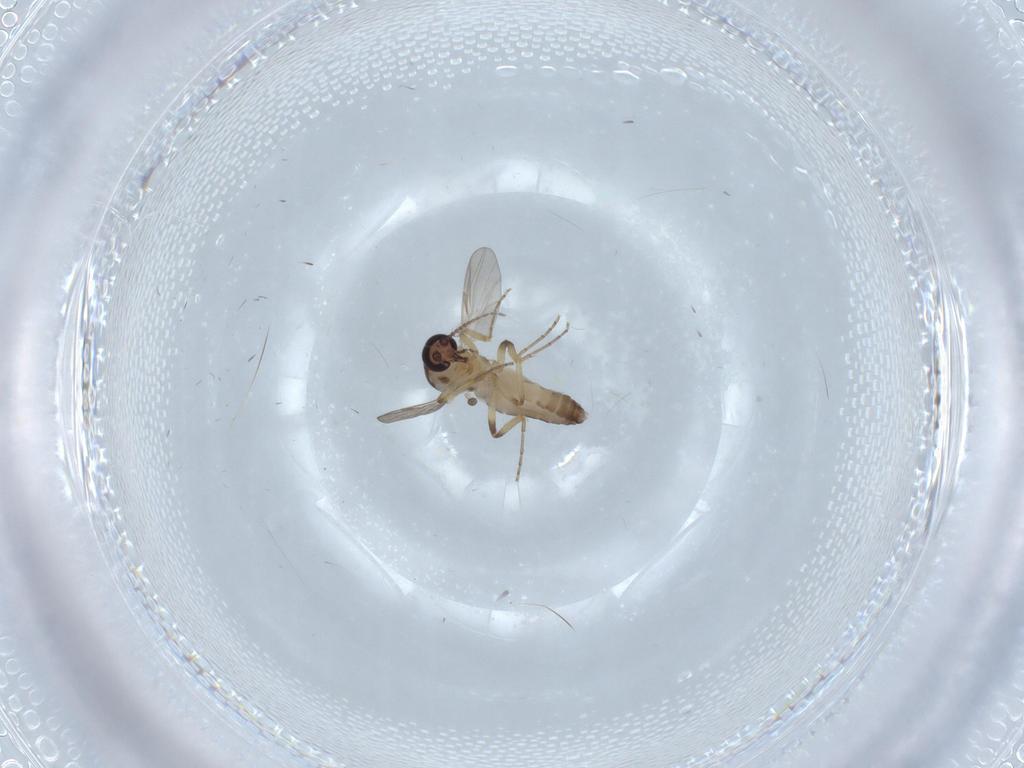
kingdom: Animalia
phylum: Arthropoda
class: Insecta
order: Diptera
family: Ceratopogonidae
